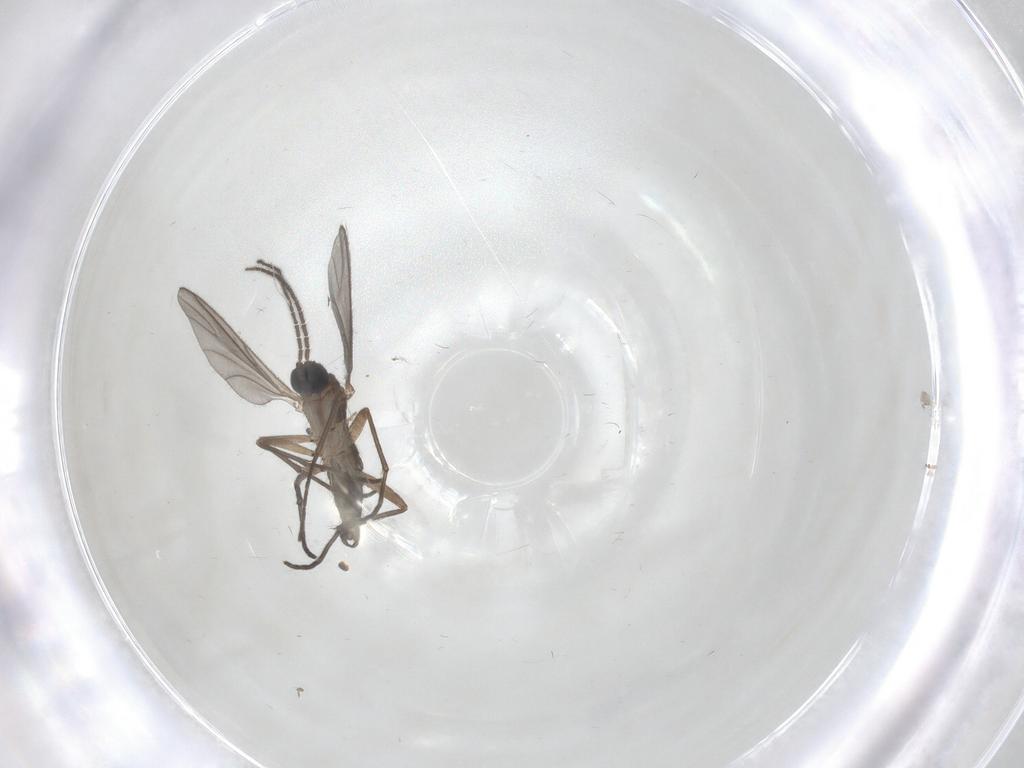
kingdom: Animalia
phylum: Arthropoda
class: Insecta
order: Diptera
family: Sciaridae
